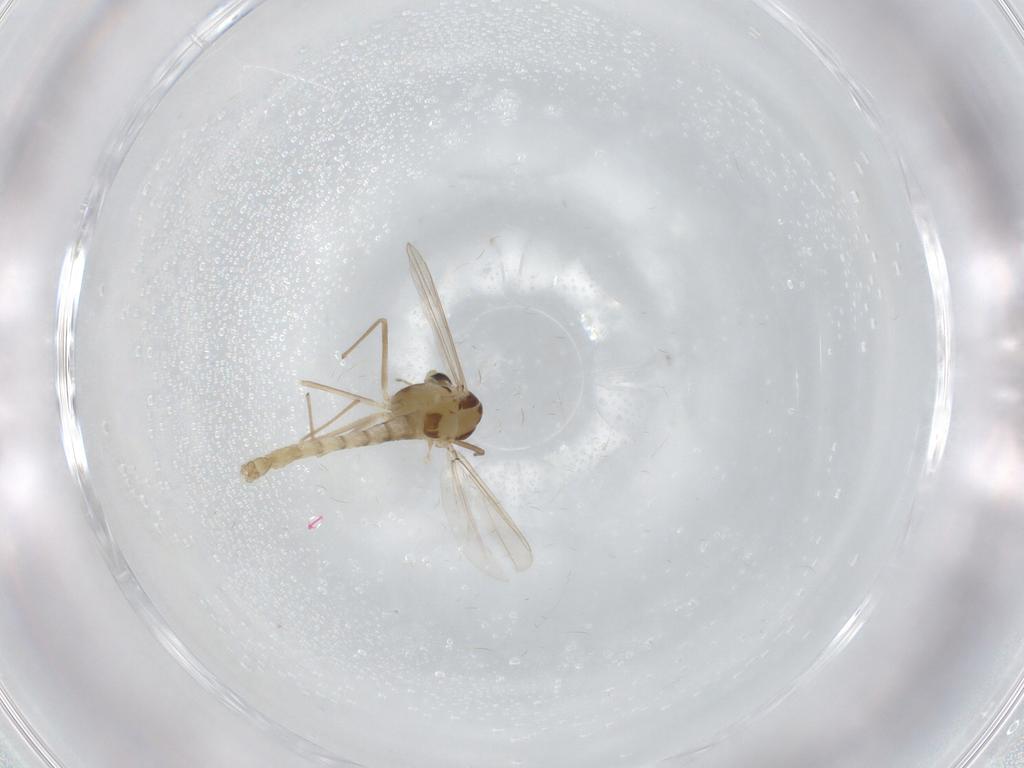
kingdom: Animalia
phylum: Arthropoda
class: Insecta
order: Diptera
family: Chironomidae
